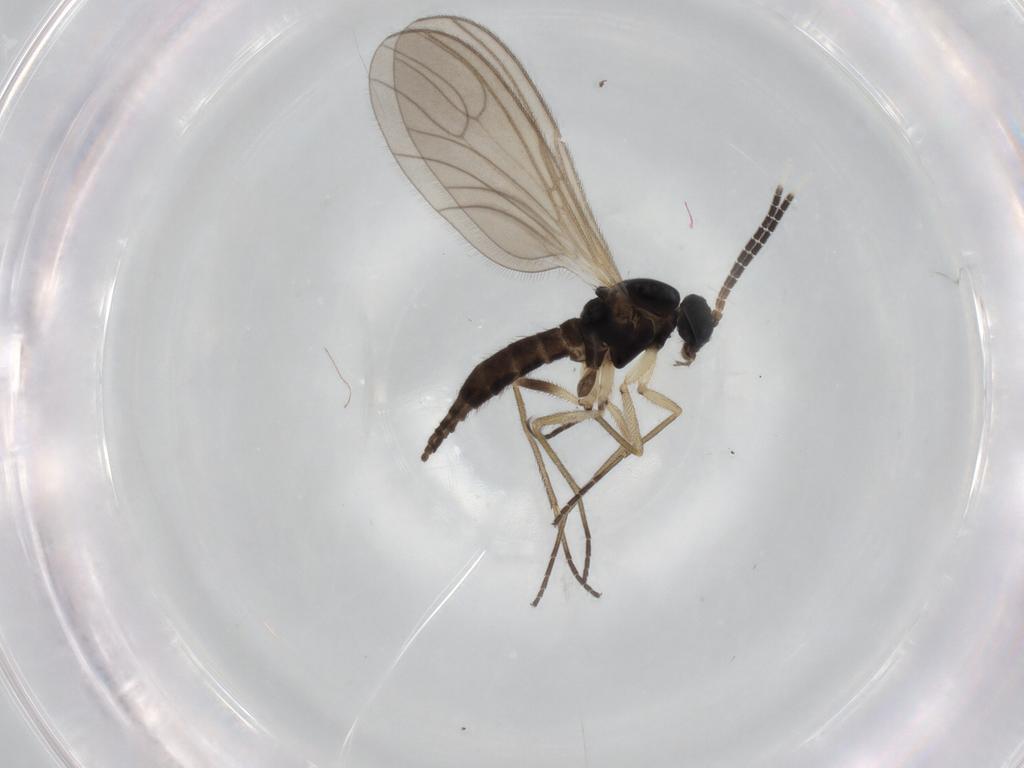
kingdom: Animalia
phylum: Arthropoda
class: Insecta
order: Diptera
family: Sciaridae
